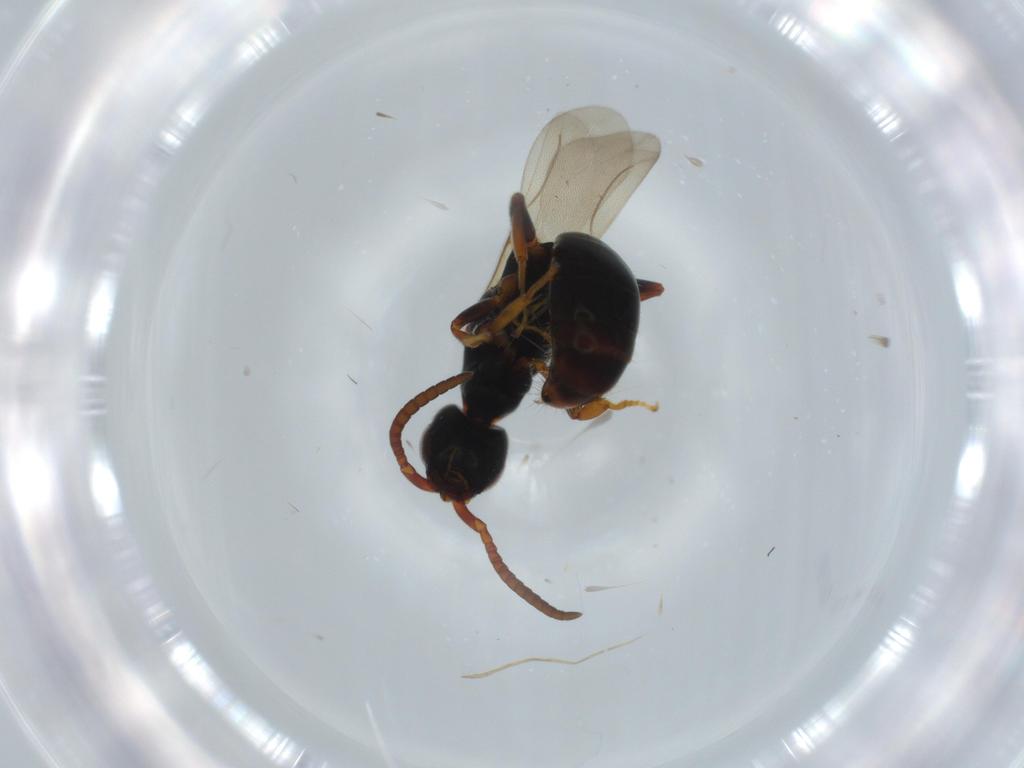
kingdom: Animalia
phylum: Arthropoda
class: Insecta
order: Hymenoptera
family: Bethylidae
